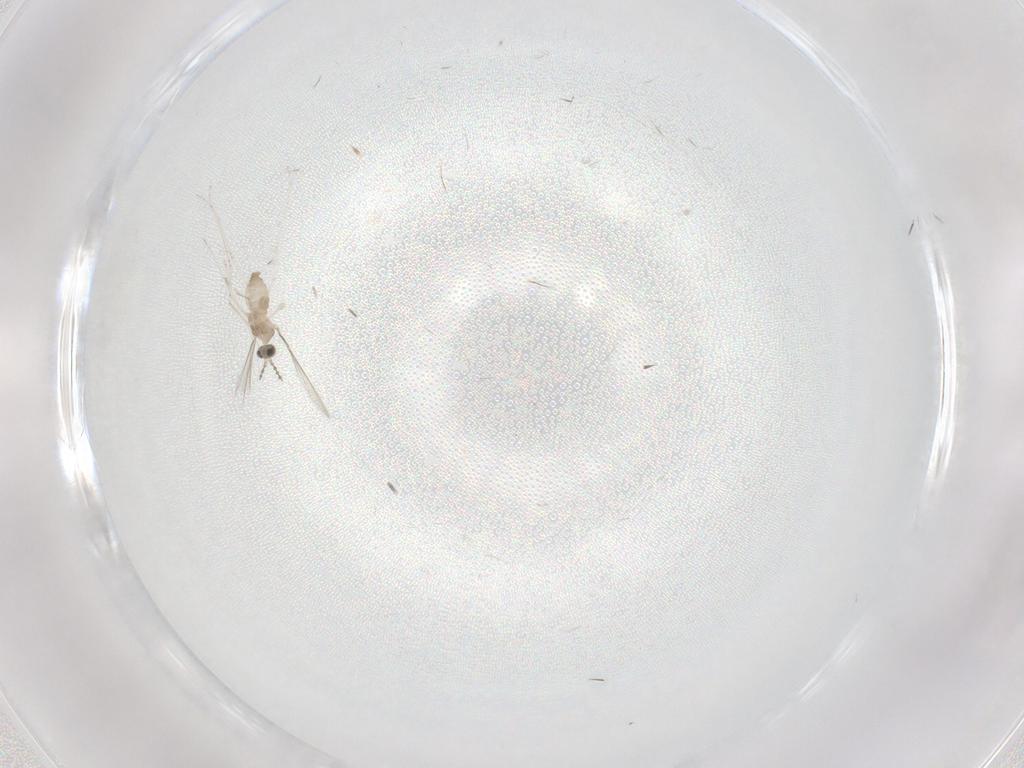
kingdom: Animalia
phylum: Arthropoda
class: Insecta
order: Diptera
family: Cecidomyiidae
